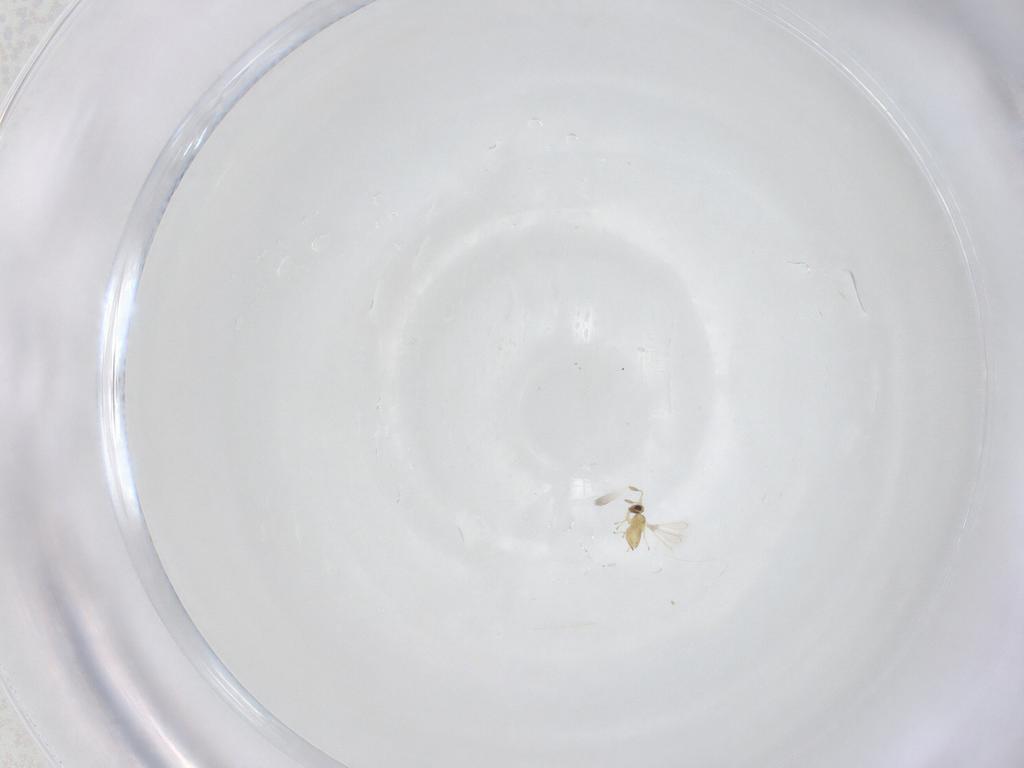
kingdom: Animalia
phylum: Arthropoda
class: Insecta
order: Hymenoptera
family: Mymaridae
